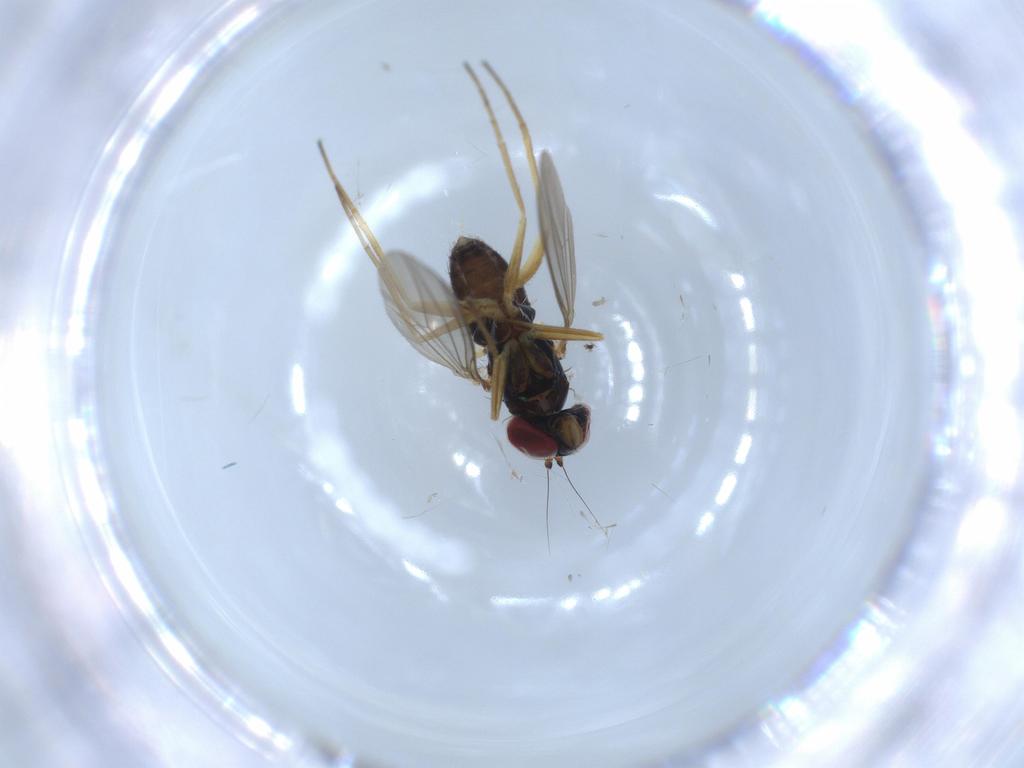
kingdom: Animalia
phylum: Arthropoda
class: Insecta
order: Diptera
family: Dolichopodidae
